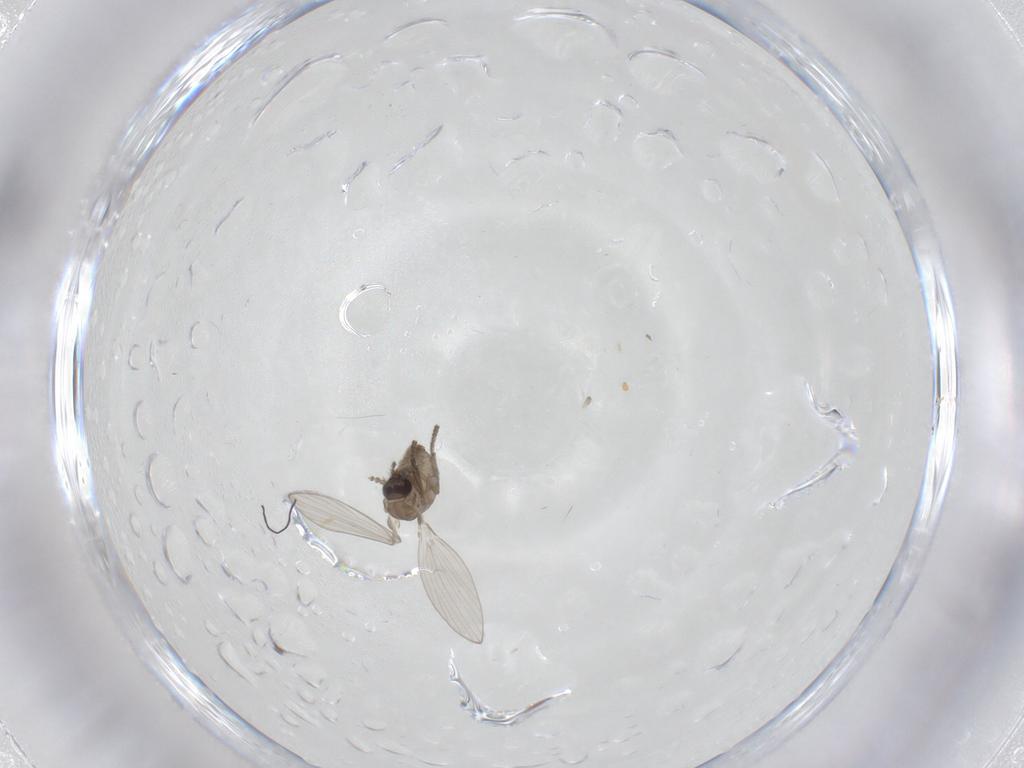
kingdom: Animalia
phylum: Arthropoda
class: Insecta
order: Diptera
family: Psychodidae
